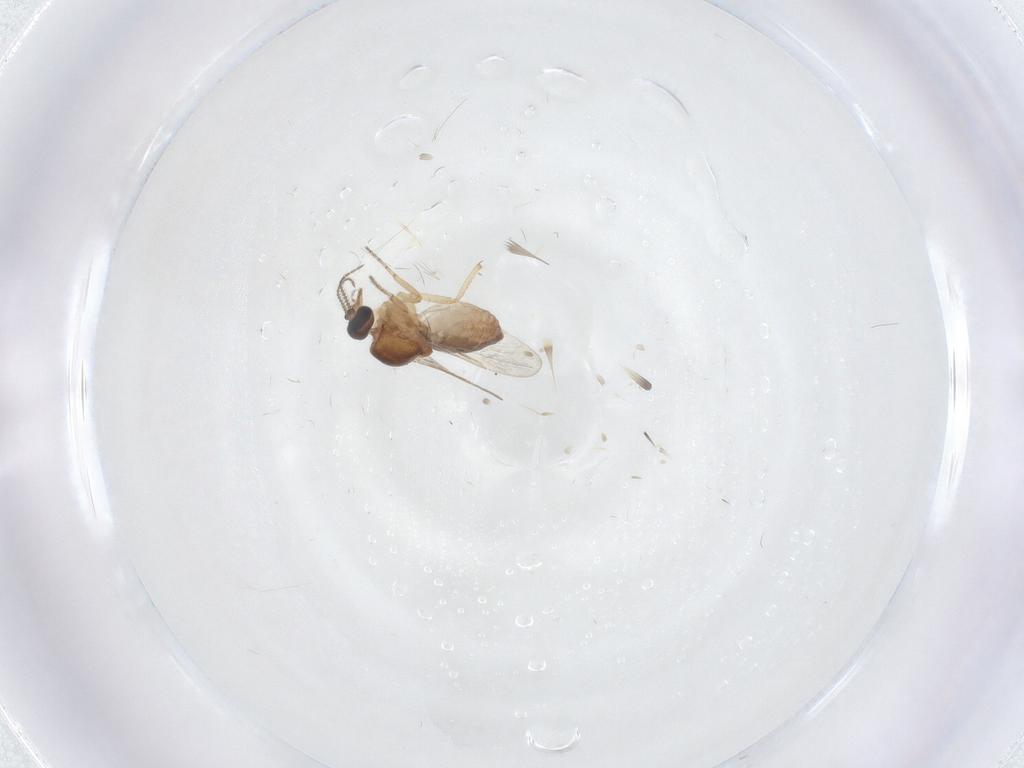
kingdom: Animalia
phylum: Arthropoda
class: Insecta
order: Diptera
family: Ceratopogonidae
